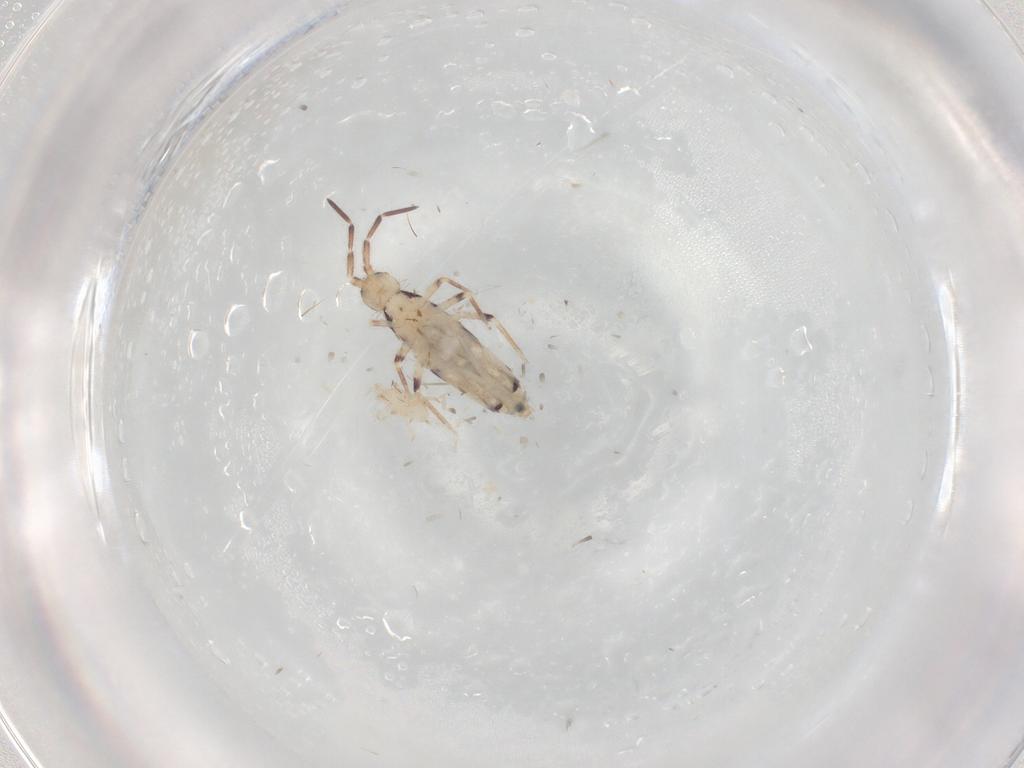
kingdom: Animalia
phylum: Arthropoda
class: Collembola
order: Entomobryomorpha
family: Entomobryidae
